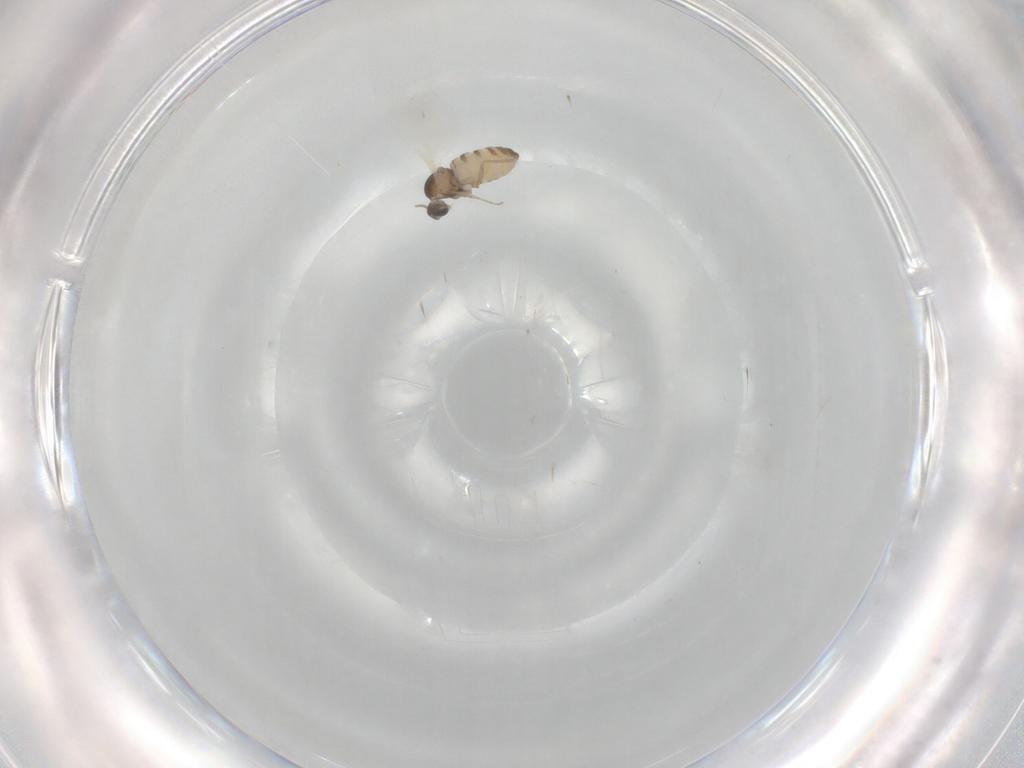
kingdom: Animalia
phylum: Arthropoda
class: Insecta
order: Diptera
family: Cecidomyiidae
